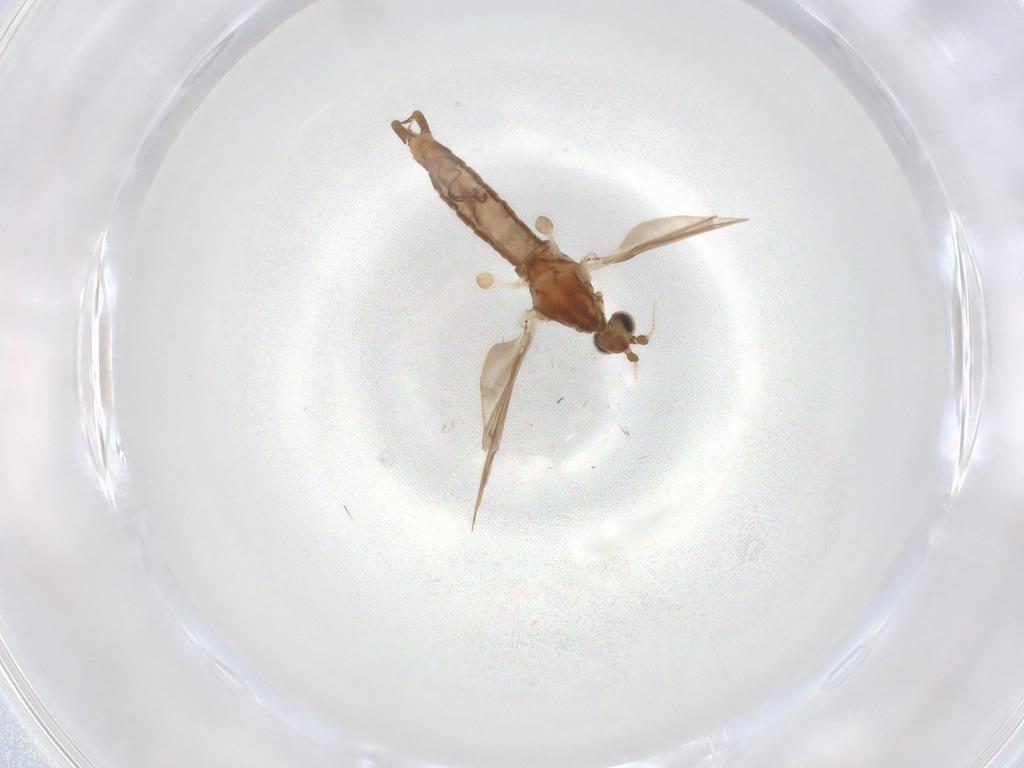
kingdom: Animalia
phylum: Arthropoda
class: Insecta
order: Diptera
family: Limoniidae
